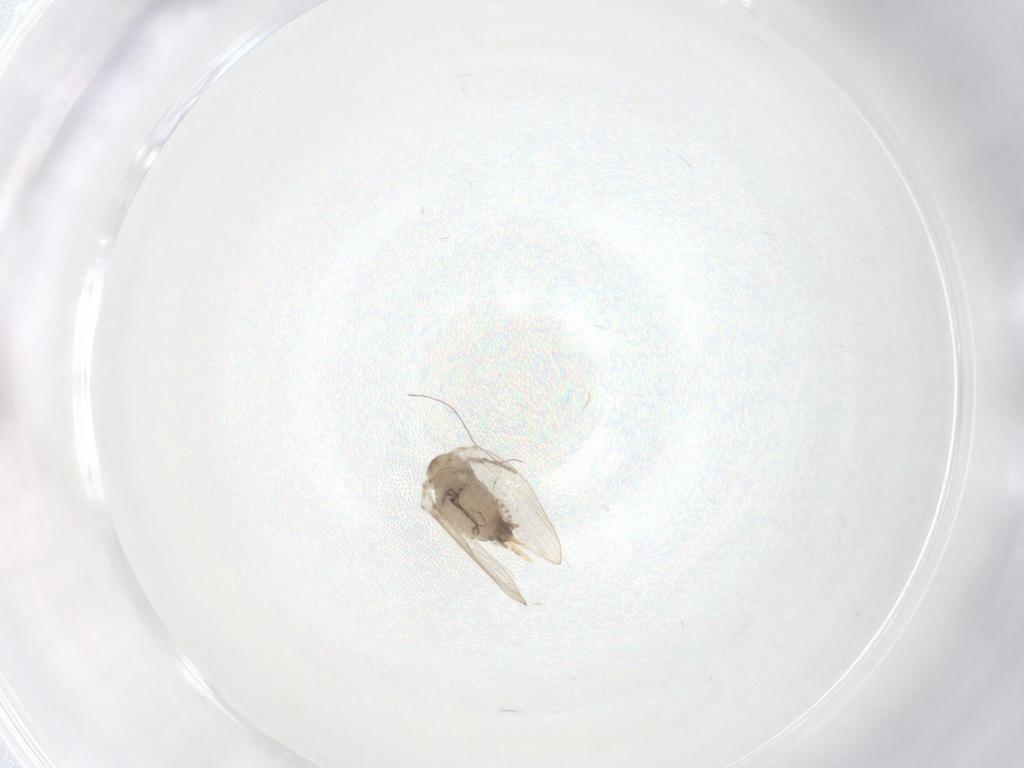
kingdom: Animalia
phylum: Arthropoda
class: Insecta
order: Diptera
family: Psychodidae
